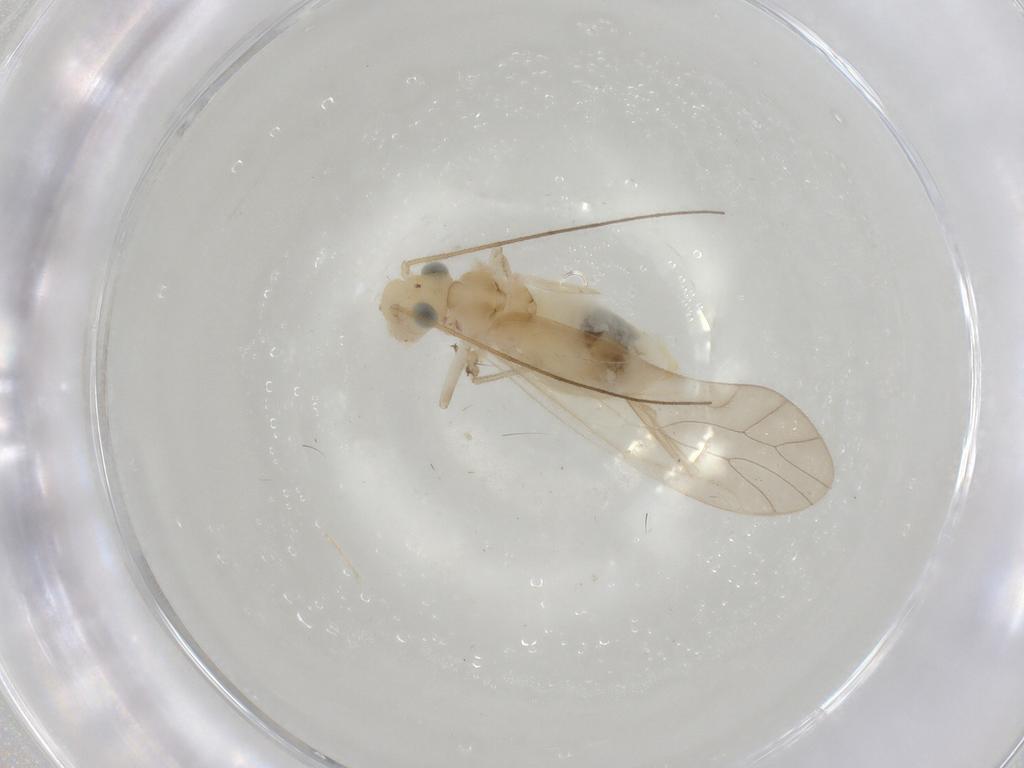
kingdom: Animalia
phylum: Arthropoda
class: Insecta
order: Psocodea
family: Caeciliusidae
